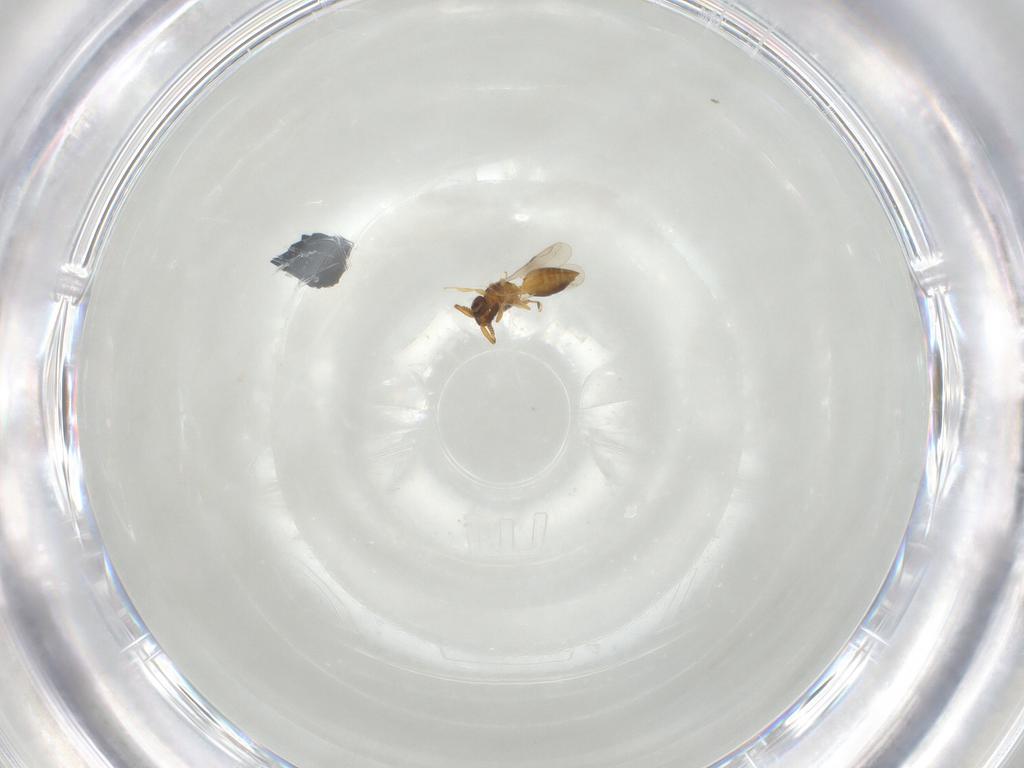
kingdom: Animalia
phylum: Arthropoda
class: Insecta
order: Hymenoptera
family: Ceraphronidae
